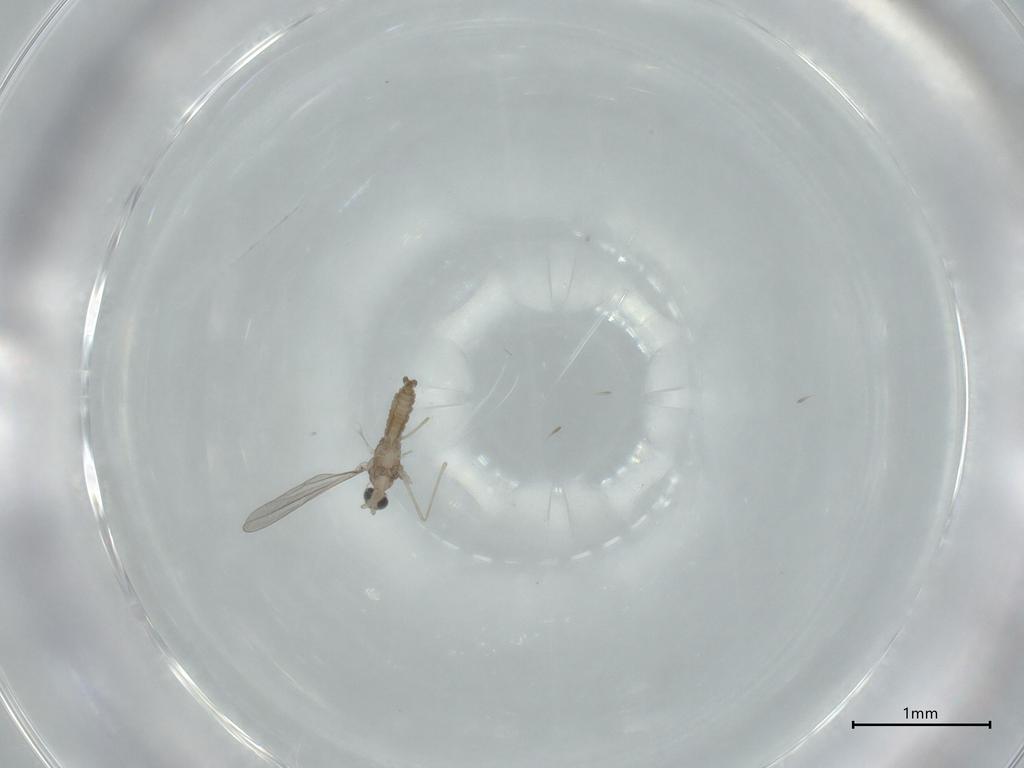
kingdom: Animalia
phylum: Arthropoda
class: Insecta
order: Diptera
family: Cecidomyiidae
